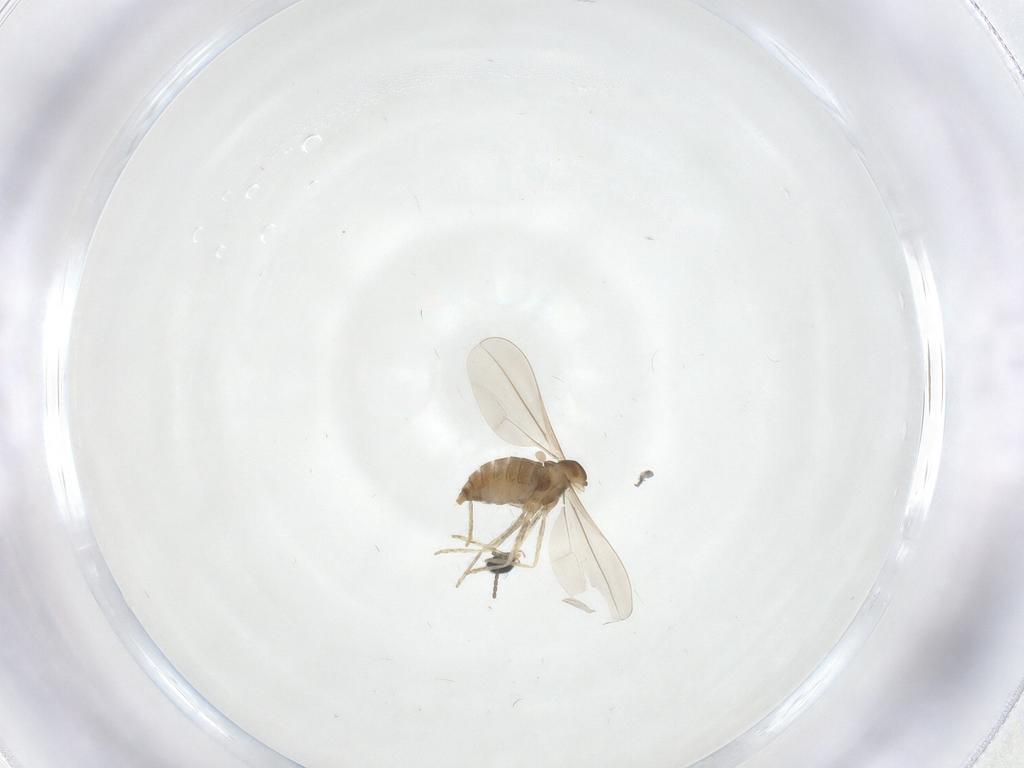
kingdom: Animalia
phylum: Arthropoda
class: Insecta
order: Diptera
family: Cecidomyiidae
